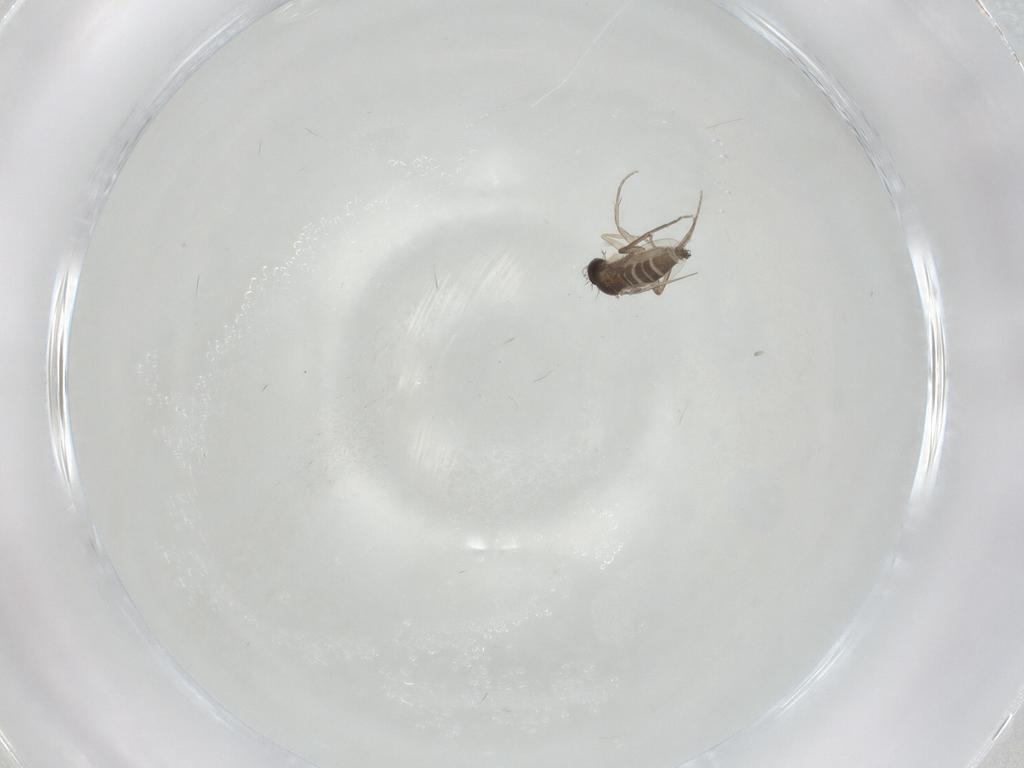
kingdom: Animalia
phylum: Arthropoda
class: Insecta
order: Diptera
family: Phoridae
